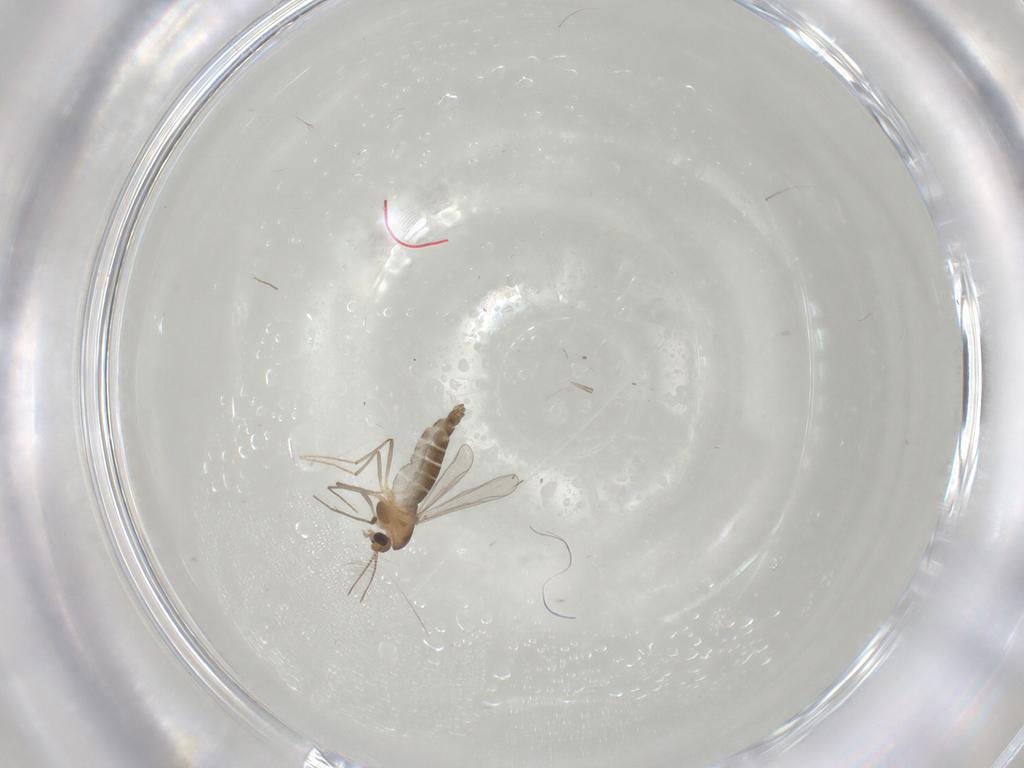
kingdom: Animalia
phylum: Arthropoda
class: Insecta
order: Diptera
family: Chironomidae
